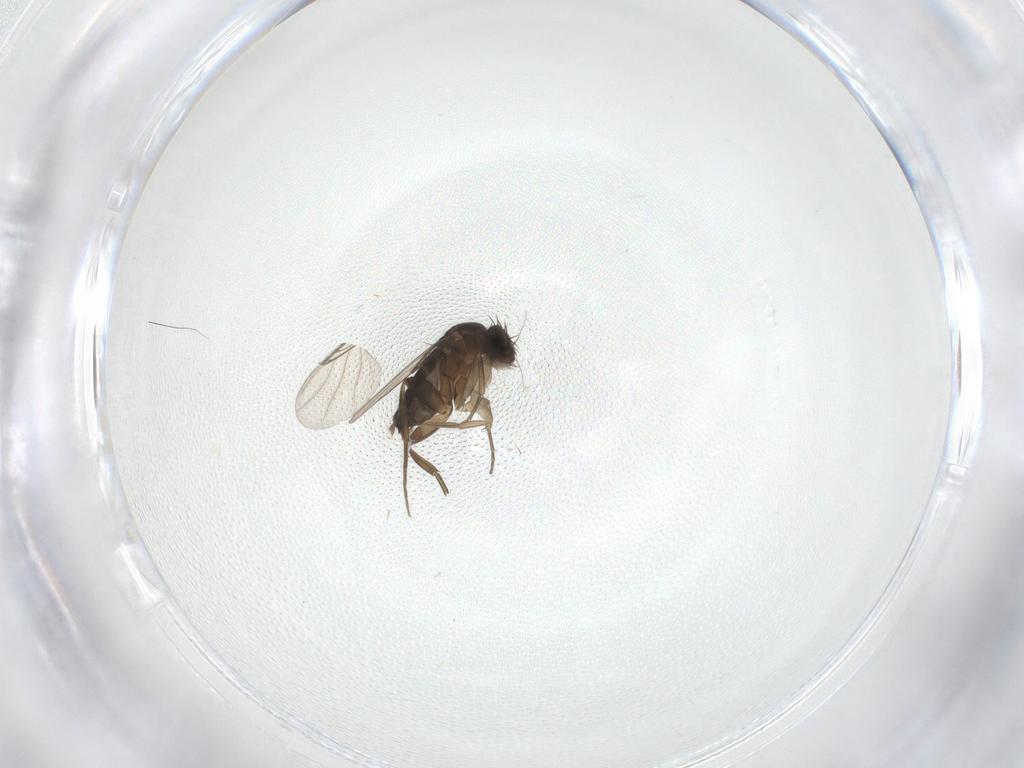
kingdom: Animalia
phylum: Arthropoda
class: Insecta
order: Diptera
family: Phoridae
